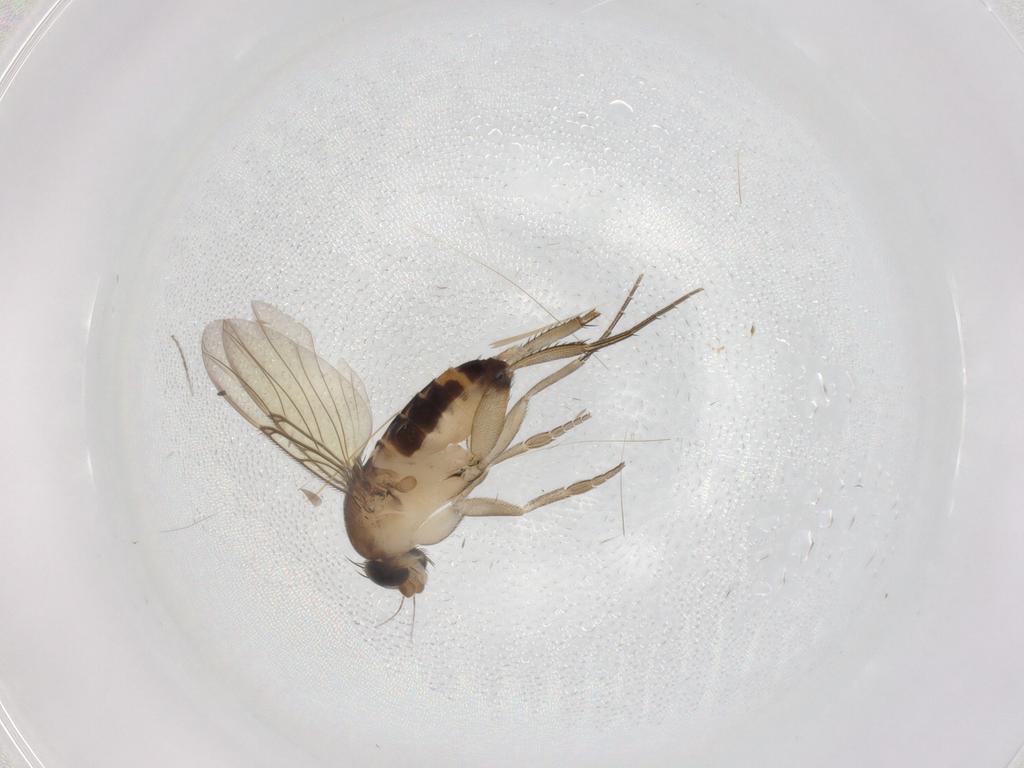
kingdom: Animalia
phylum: Arthropoda
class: Insecta
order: Diptera
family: Phoridae
